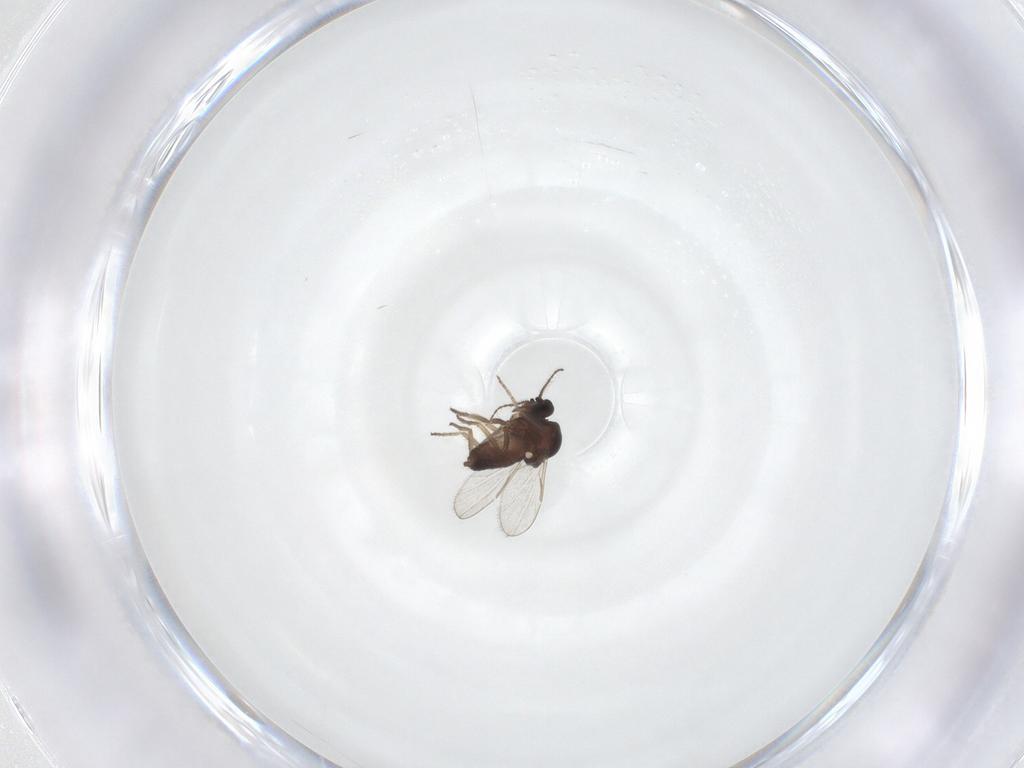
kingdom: Animalia
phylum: Arthropoda
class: Insecta
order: Diptera
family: Ceratopogonidae
